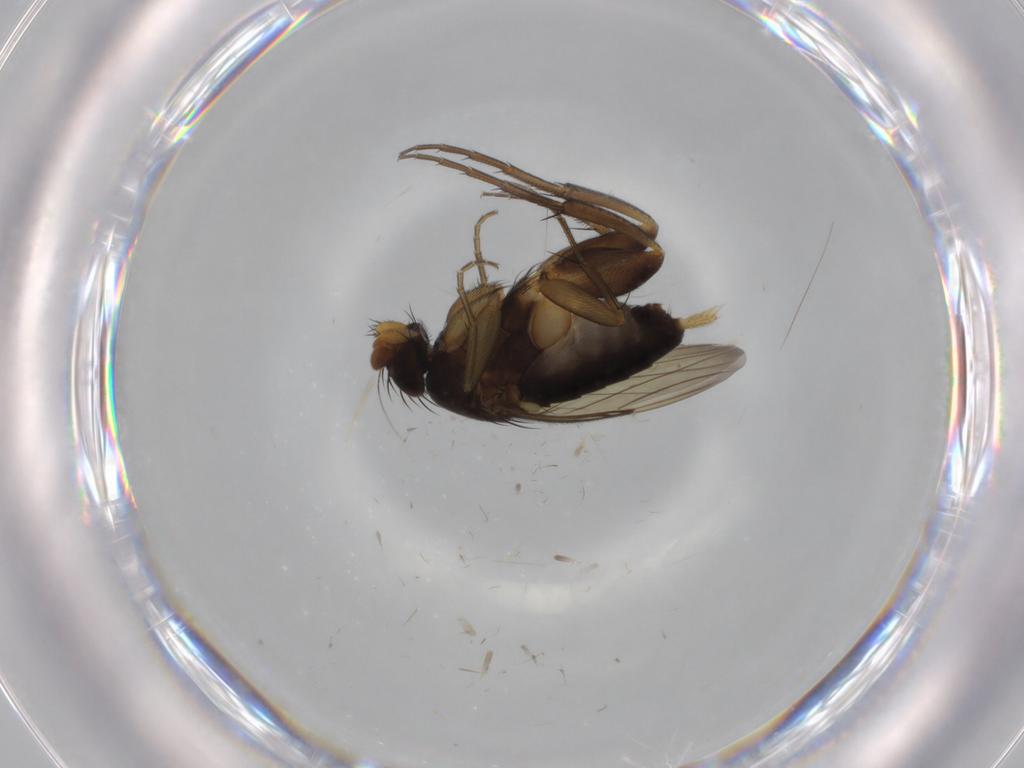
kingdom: Animalia
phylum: Arthropoda
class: Insecta
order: Diptera
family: Phoridae
